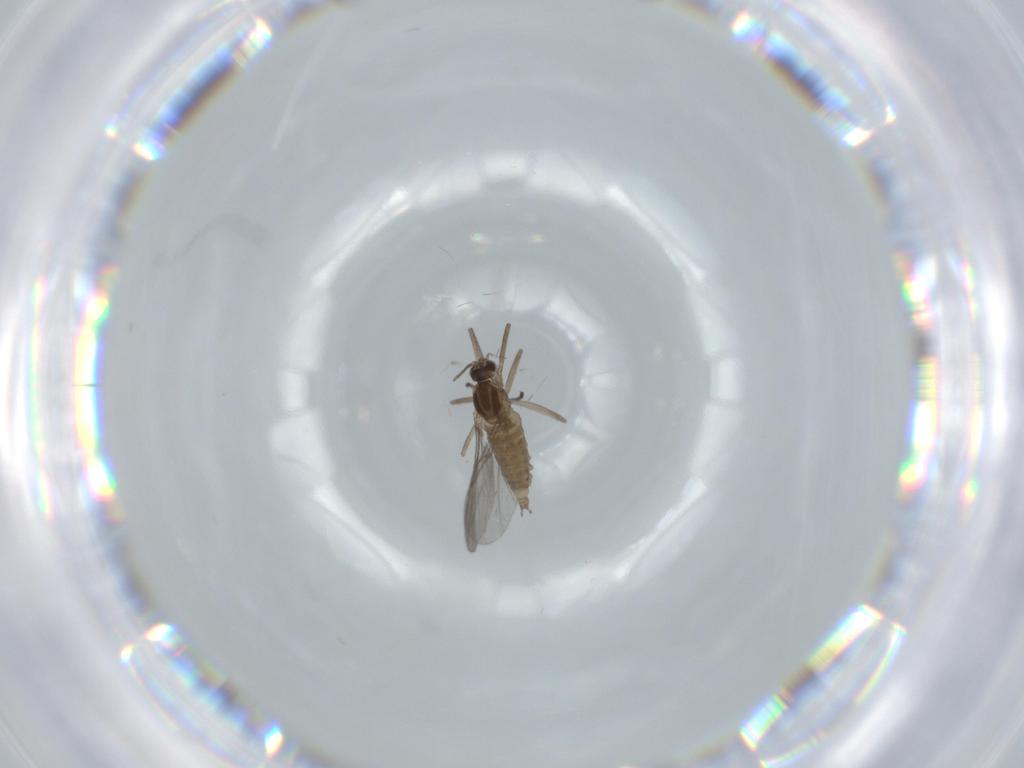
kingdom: Animalia
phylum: Arthropoda
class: Insecta
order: Diptera
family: Cecidomyiidae
